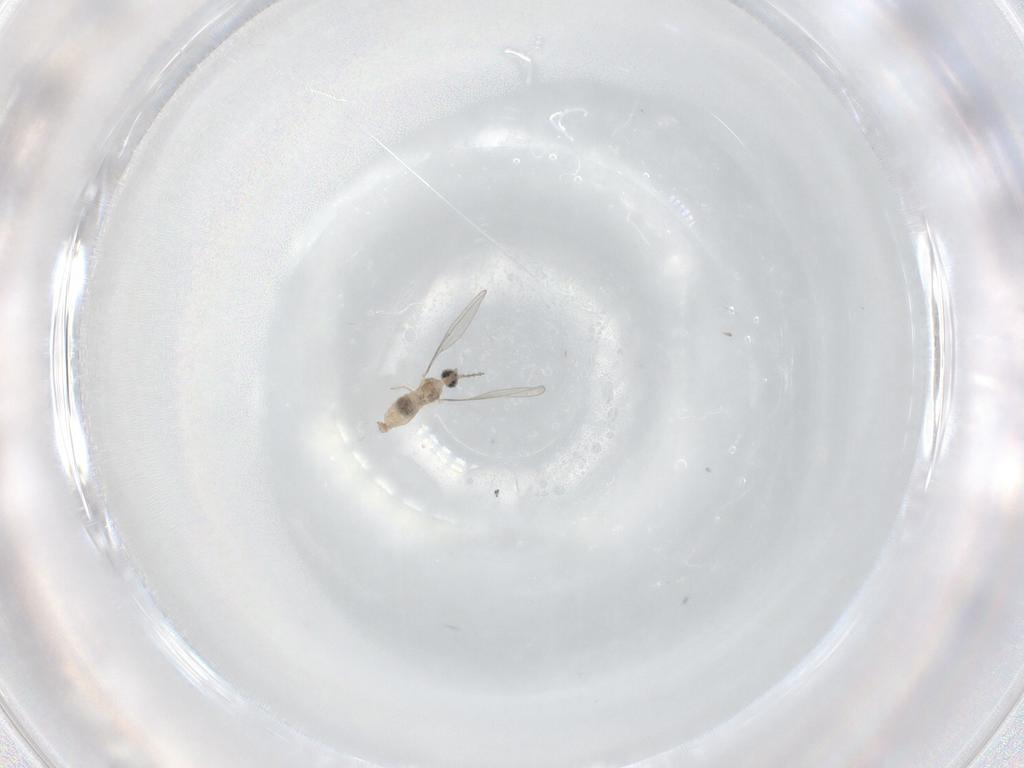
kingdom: Animalia
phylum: Arthropoda
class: Insecta
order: Diptera
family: Cecidomyiidae
